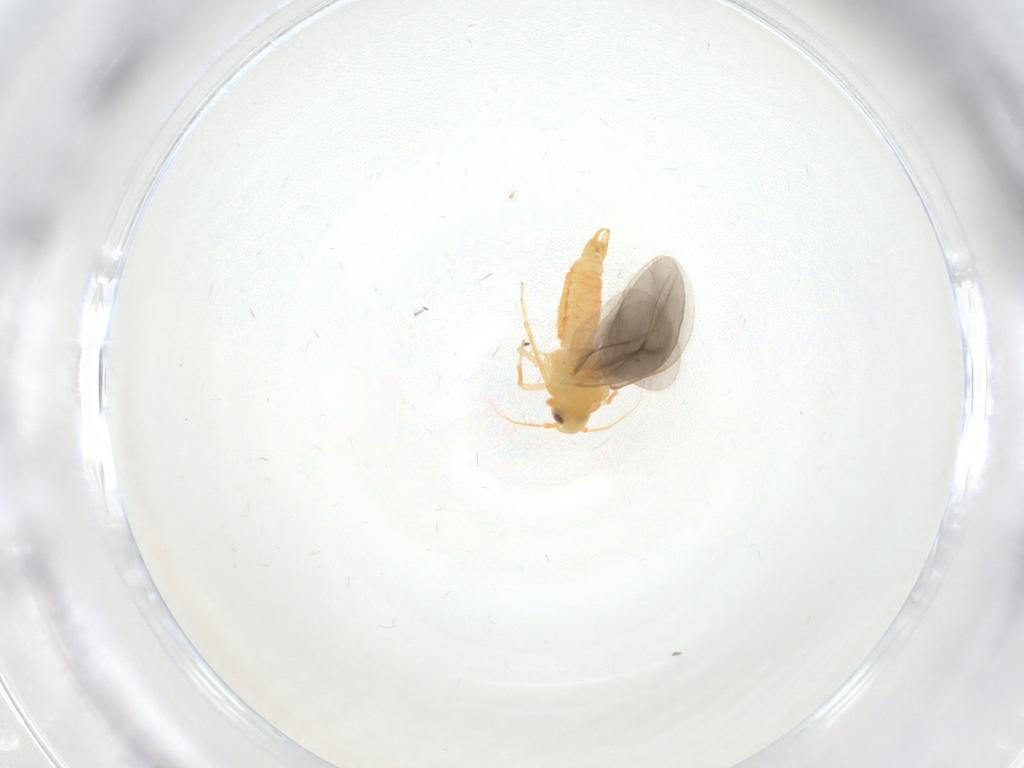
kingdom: Animalia
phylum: Arthropoda
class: Insecta
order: Hemiptera
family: Aleyrodidae
